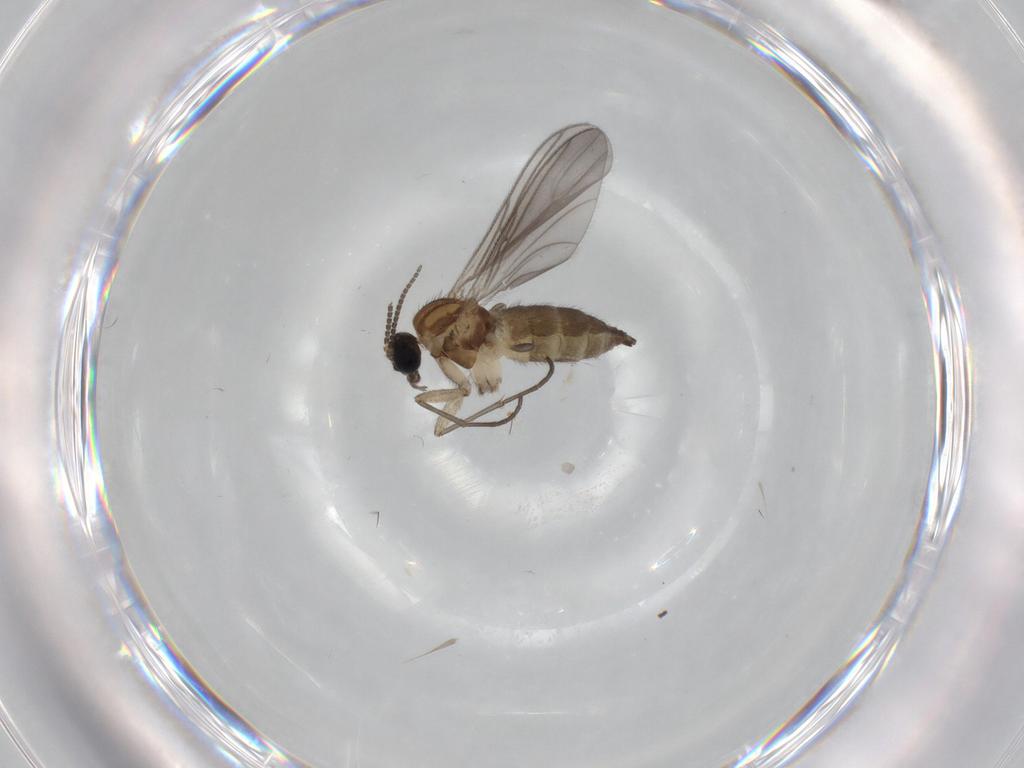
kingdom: Animalia
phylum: Arthropoda
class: Insecta
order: Diptera
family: Sciaridae
